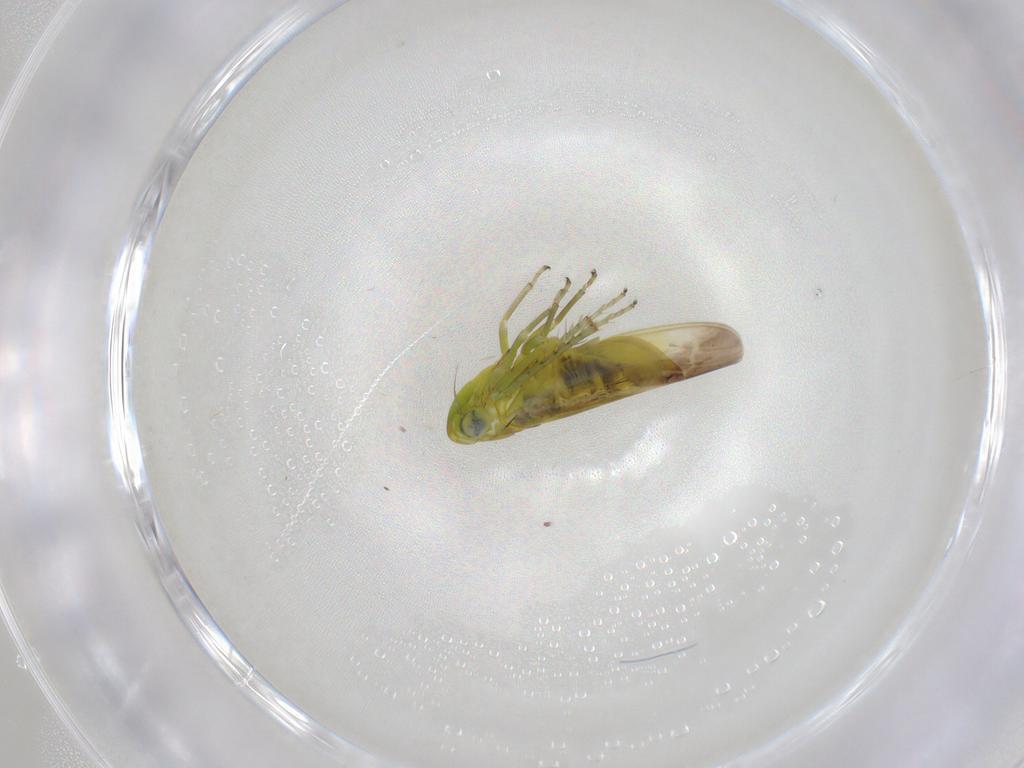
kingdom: Animalia
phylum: Arthropoda
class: Insecta
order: Hemiptera
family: Cicadellidae
